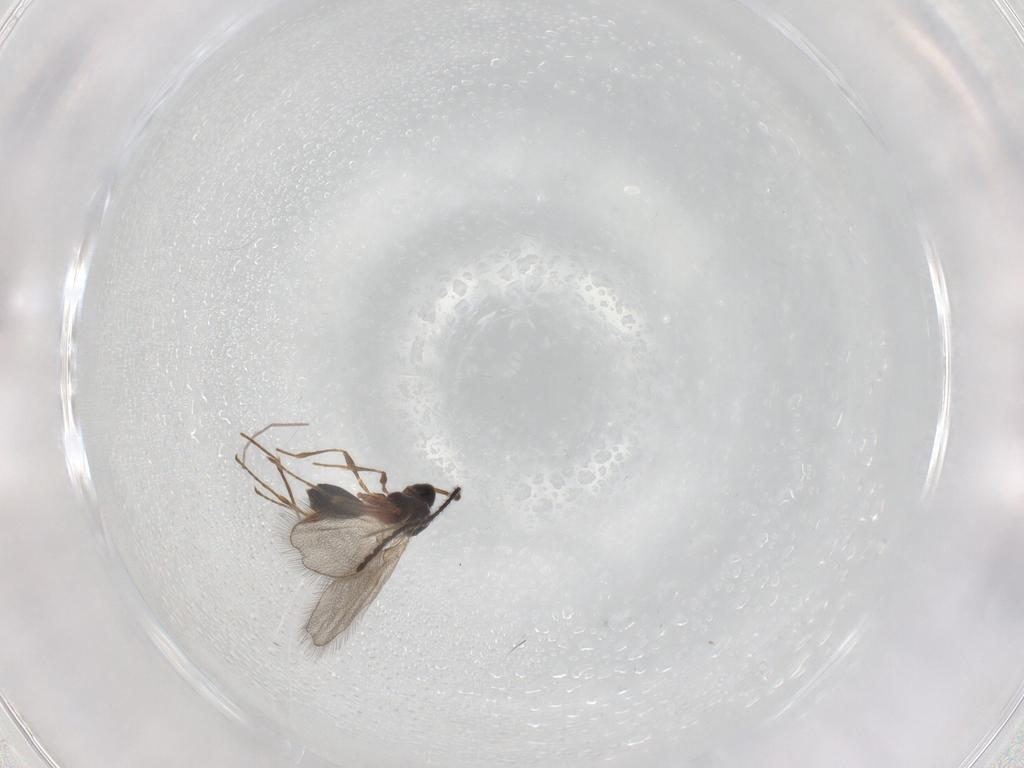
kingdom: Animalia
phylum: Arthropoda
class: Insecta
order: Hymenoptera
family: Diapriidae
